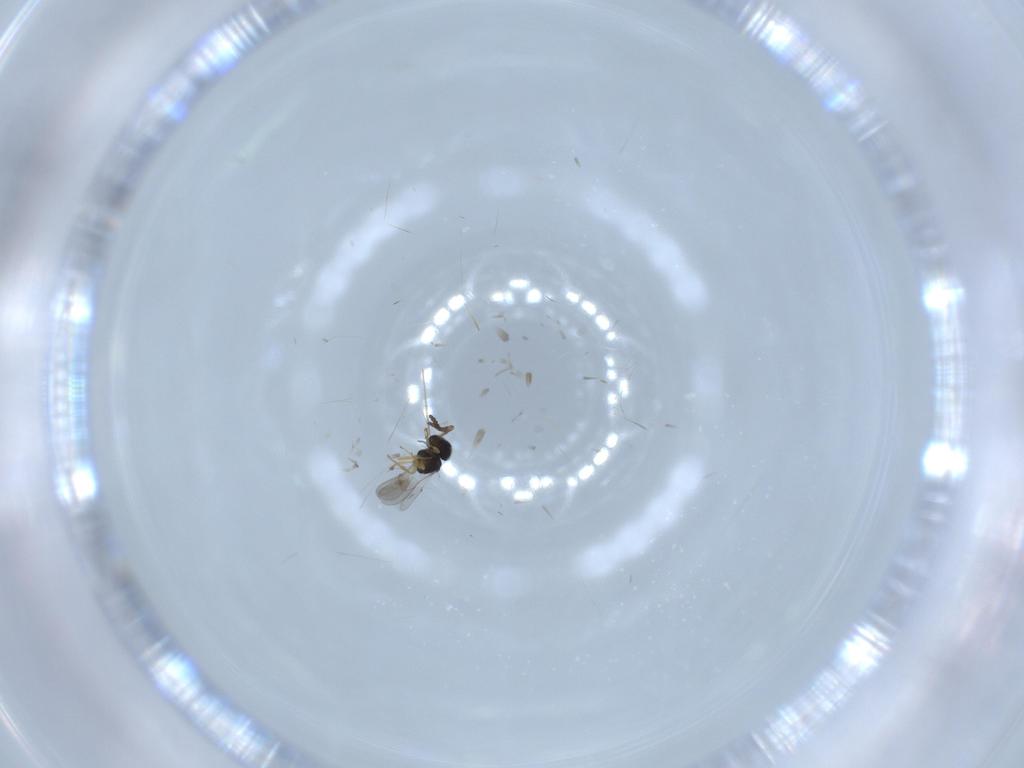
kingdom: Animalia
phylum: Arthropoda
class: Insecta
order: Hymenoptera
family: Scelionidae
